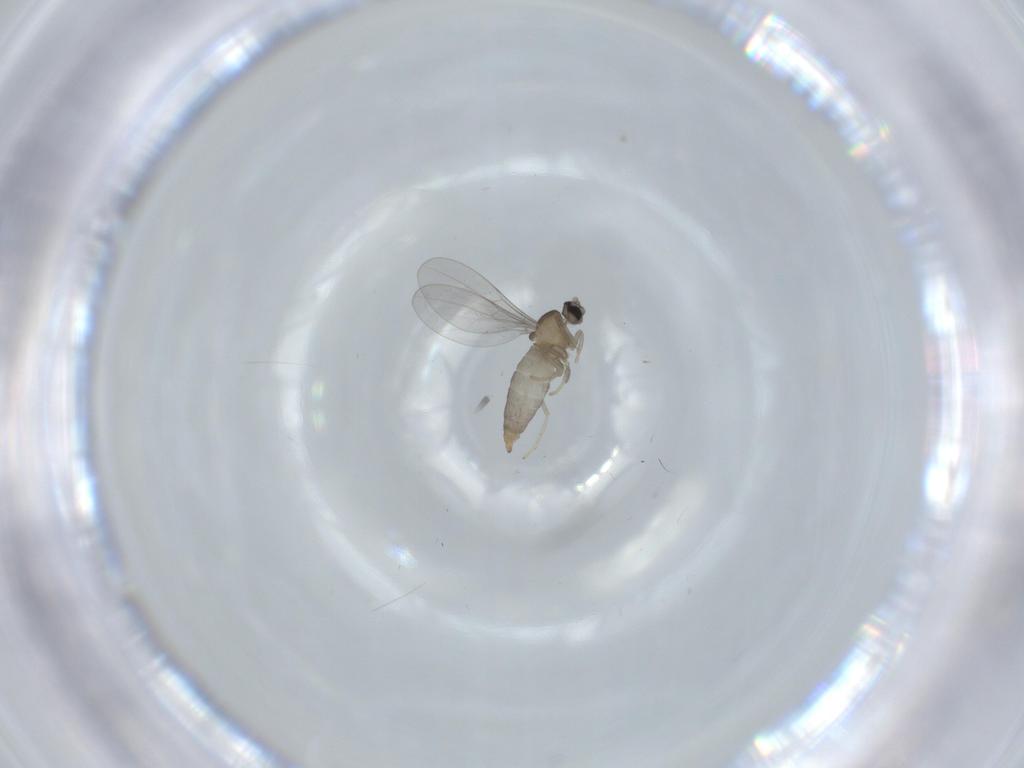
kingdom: Animalia
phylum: Arthropoda
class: Insecta
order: Diptera
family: Cecidomyiidae
